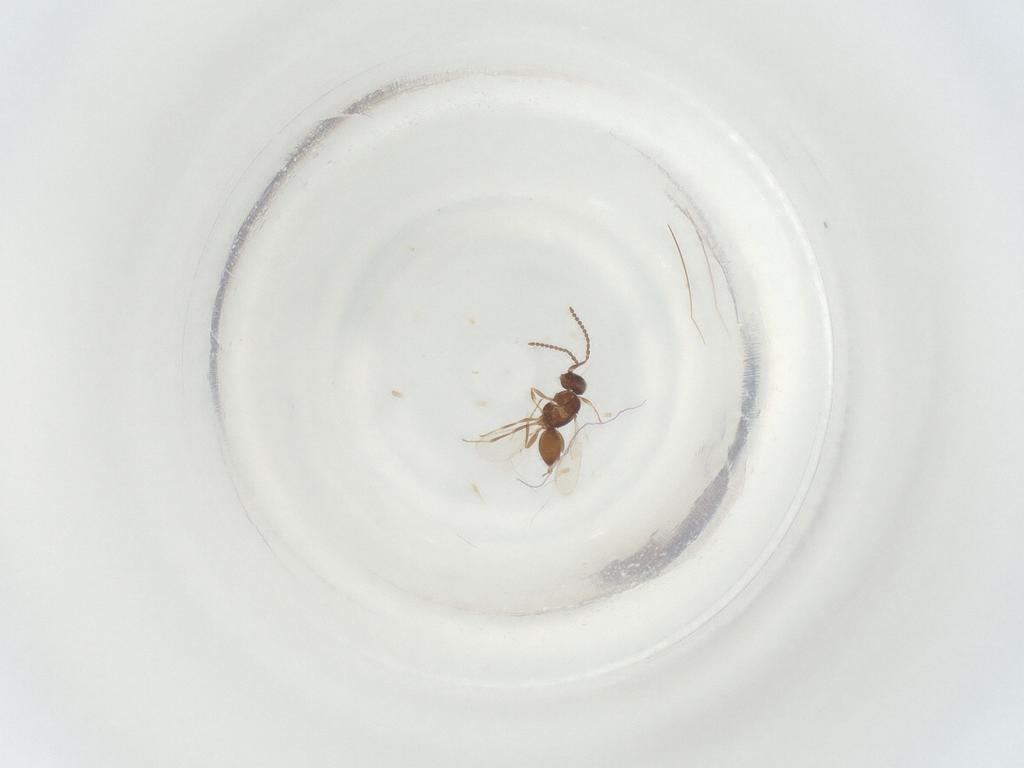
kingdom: Animalia
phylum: Arthropoda
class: Insecta
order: Hymenoptera
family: Scelionidae
